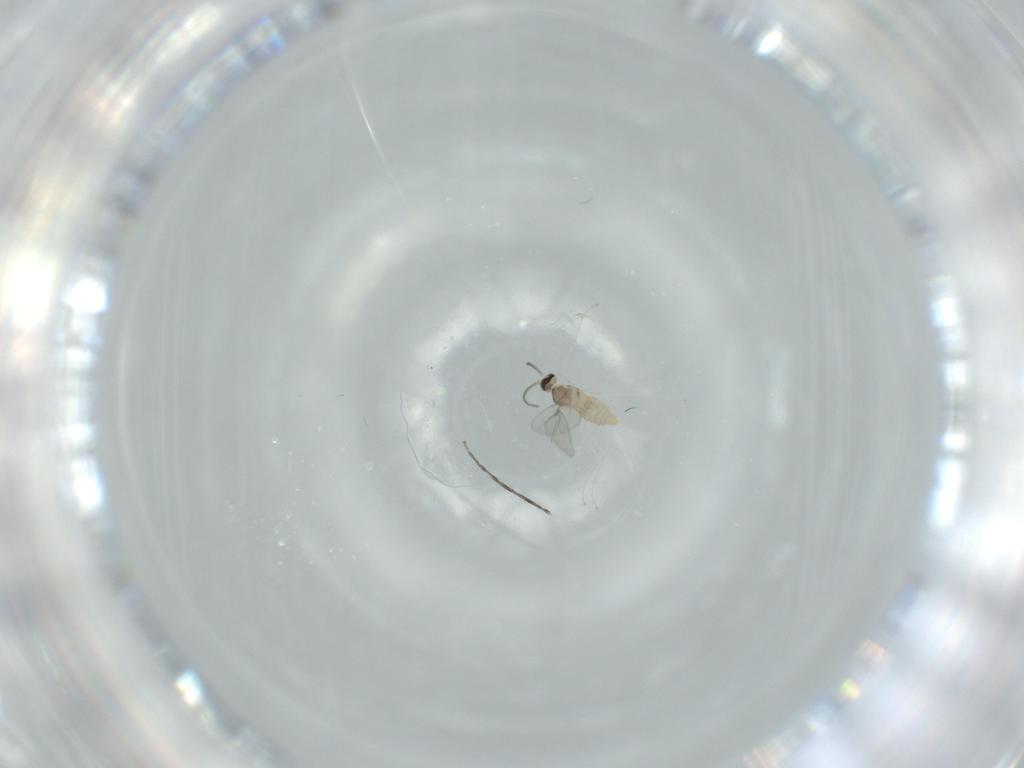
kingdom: Animalia
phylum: Arthropoda
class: Insecta
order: Diptera
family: Cecidomyiidae
